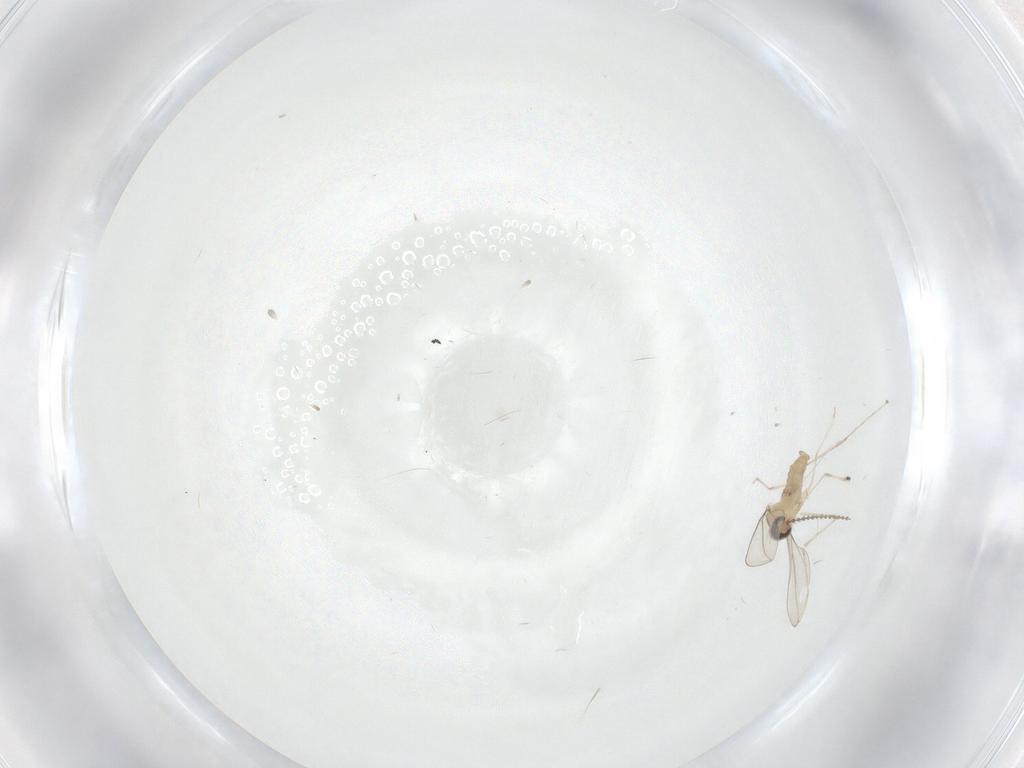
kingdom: Animalia
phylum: Arthropoda
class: Insecta
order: Diptera
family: Cecidomyiidae
